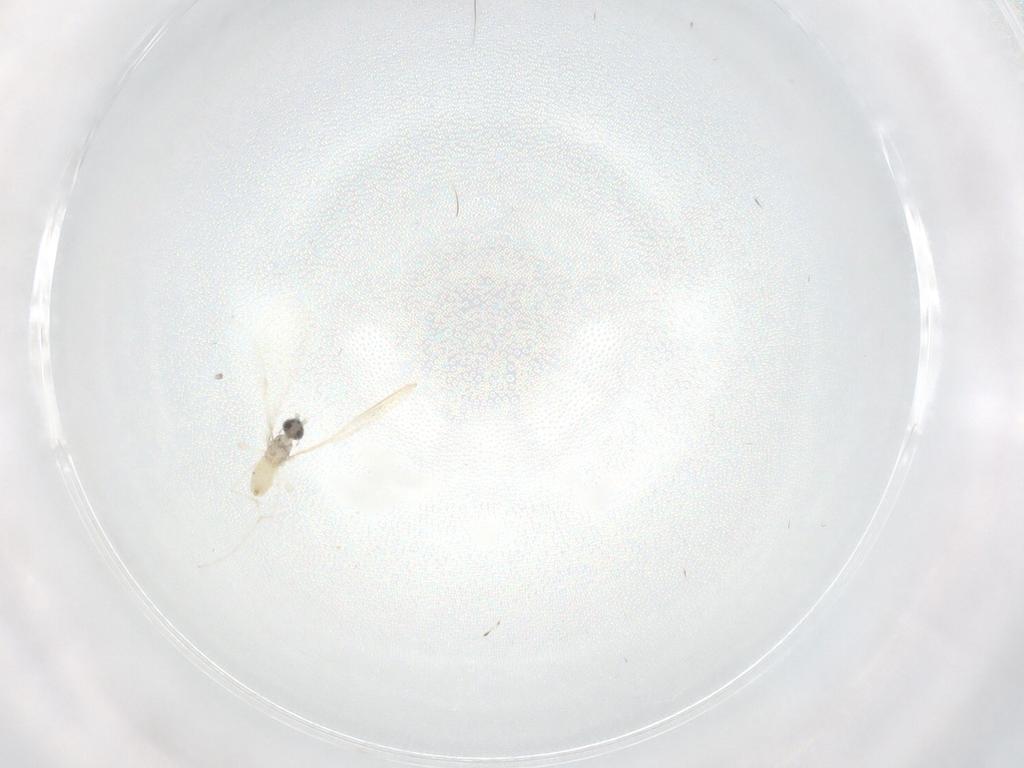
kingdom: Animalia
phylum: Arthropoda
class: Insecta
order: Diptera
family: Cecidomyiidae
